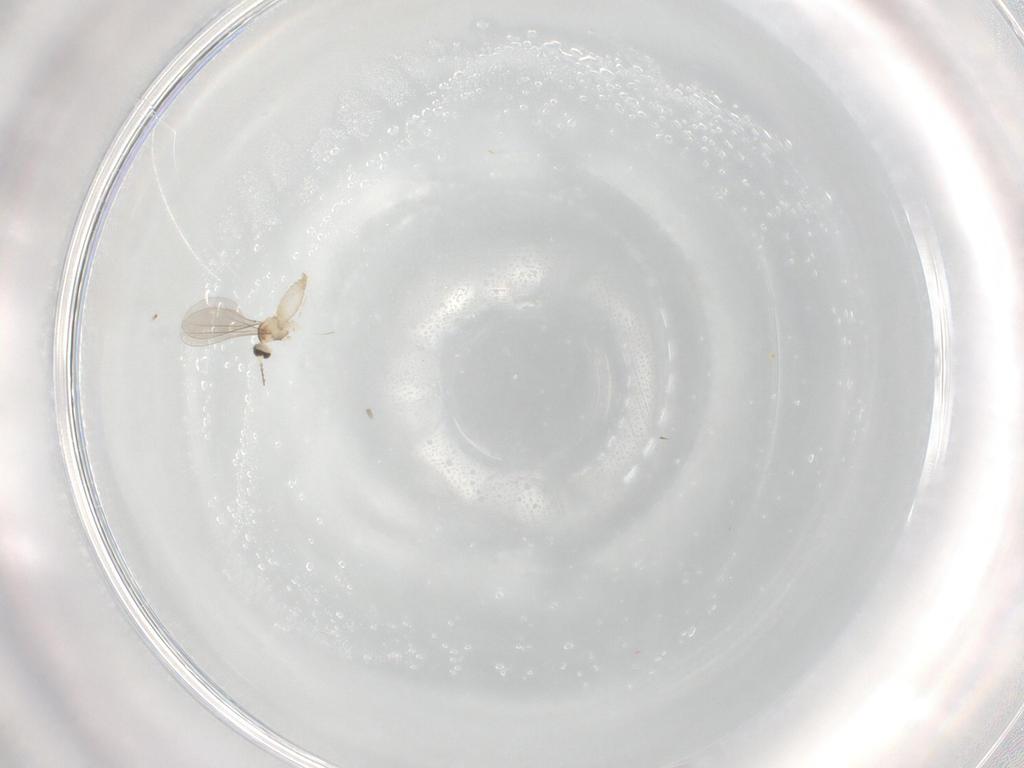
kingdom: Animalia
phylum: Arthropoda
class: Insecta
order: Diptera
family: Cecidomyiidae
